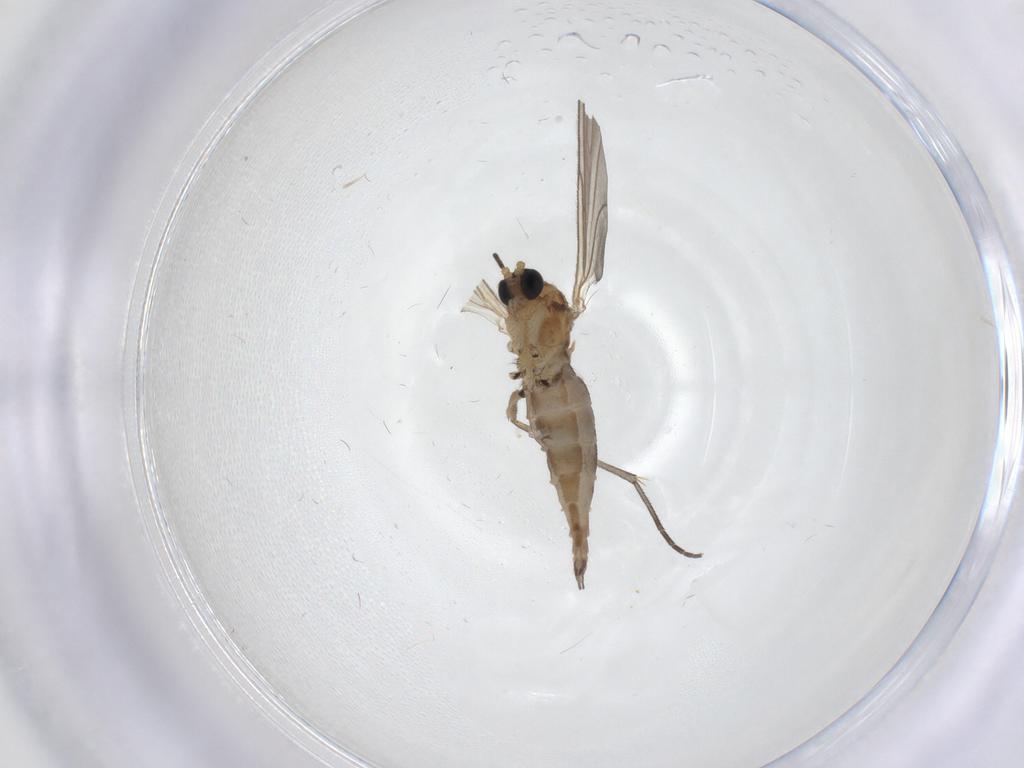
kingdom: Animalia
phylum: Arthropoda
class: Insecta
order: Diptera
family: Sciaridae
